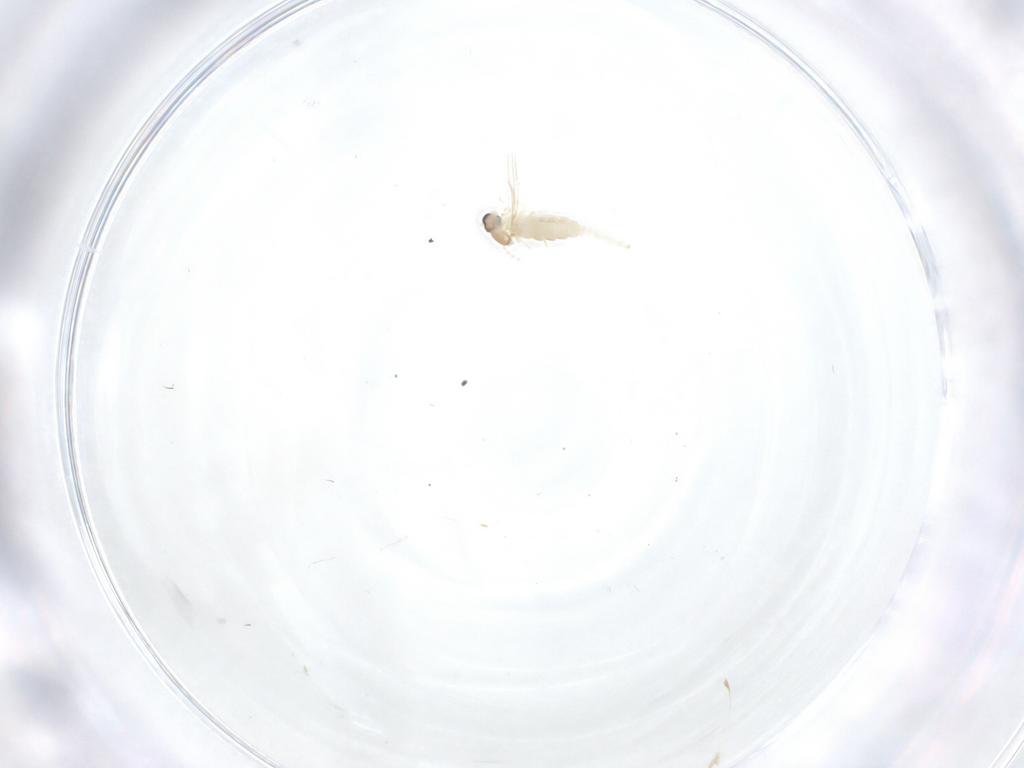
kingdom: Animalia
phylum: Arthropoda
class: Insecta
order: Diptera
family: Cecidomyiidae
